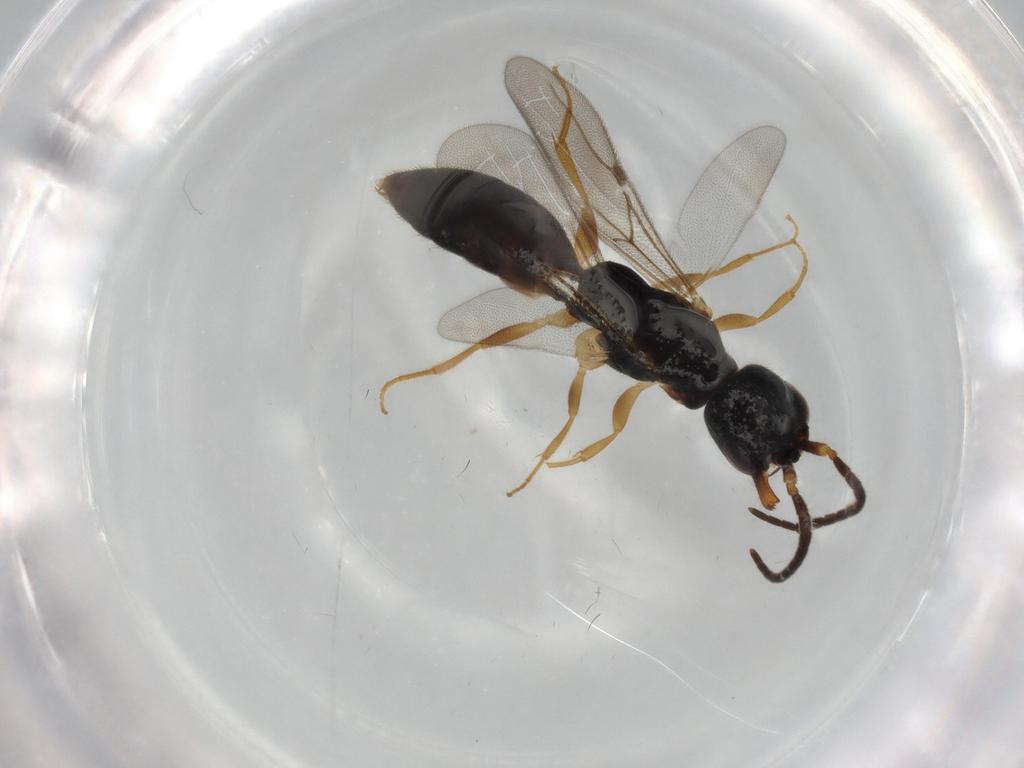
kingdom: Animalia
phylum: Arthropoda
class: Insecta
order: Hymenoptera
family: Bethylidae
